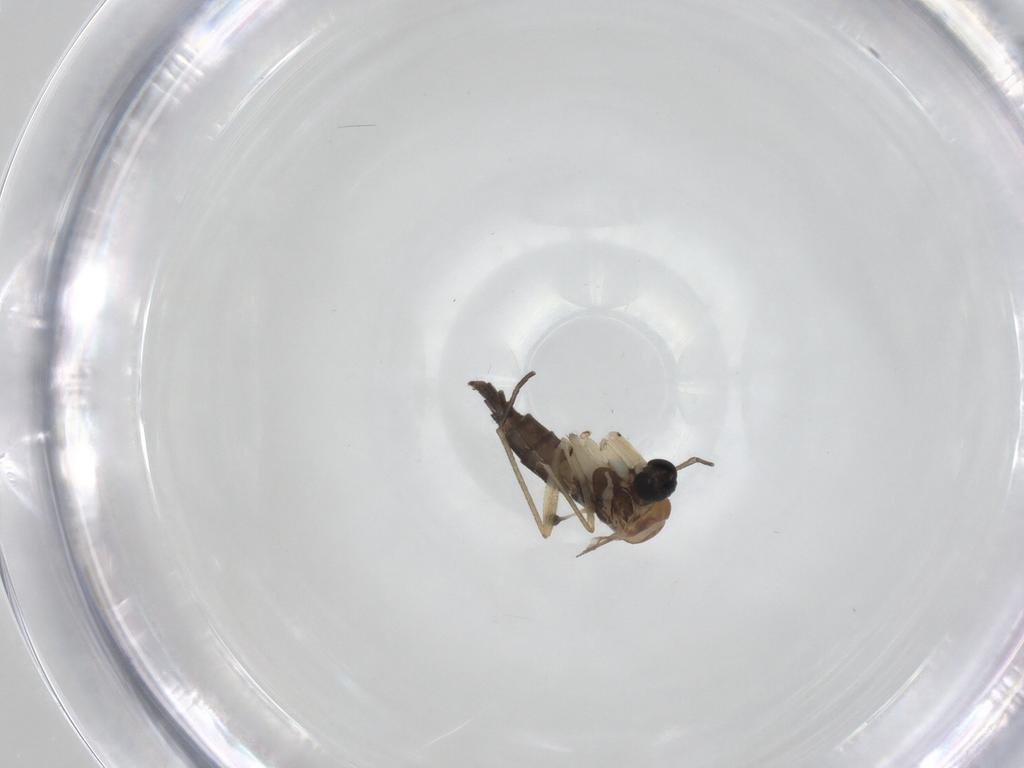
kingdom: Animalia
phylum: Arthropoda
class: Insecta
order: Diptera
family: Sciaridae
